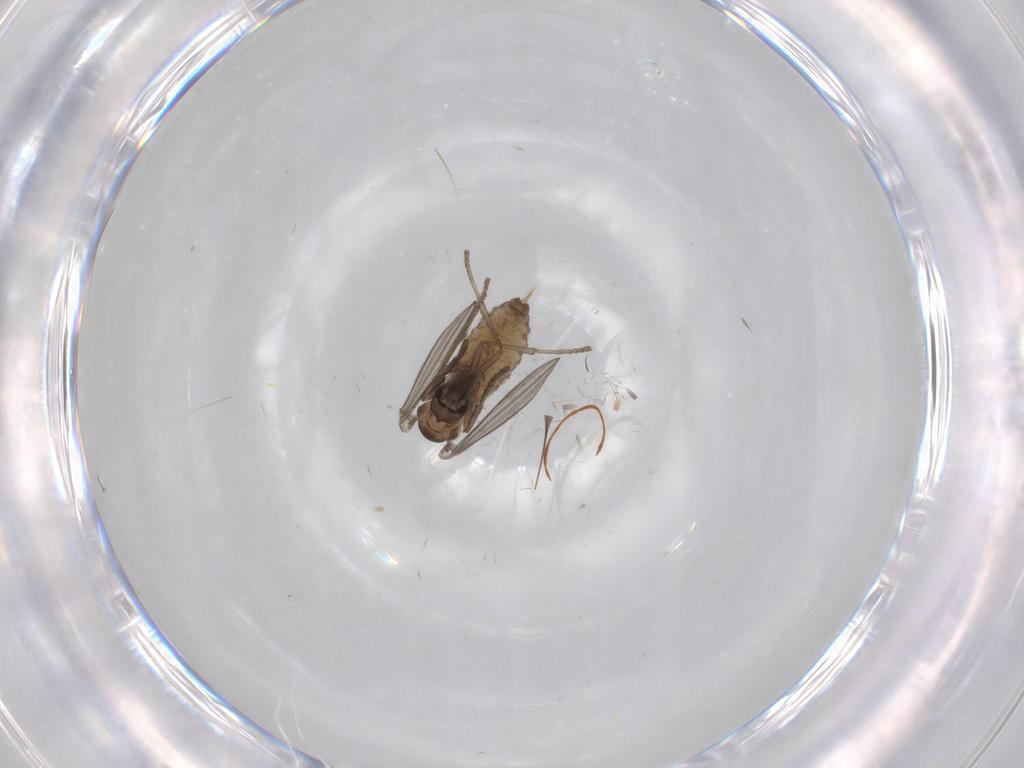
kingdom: Animalia
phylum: Arthropoda
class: Insecta
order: Diptera
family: Psychodidae
